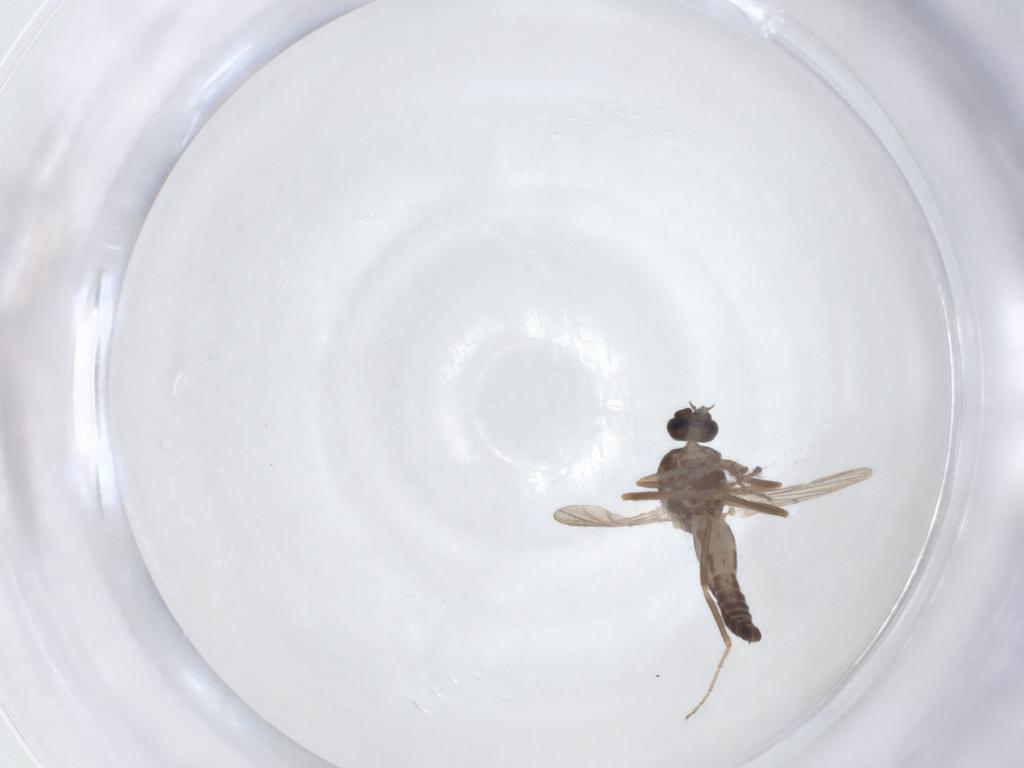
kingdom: Animalia
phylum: Arthropoda
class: Insecta
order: Diptera
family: Ceratopogonidae
